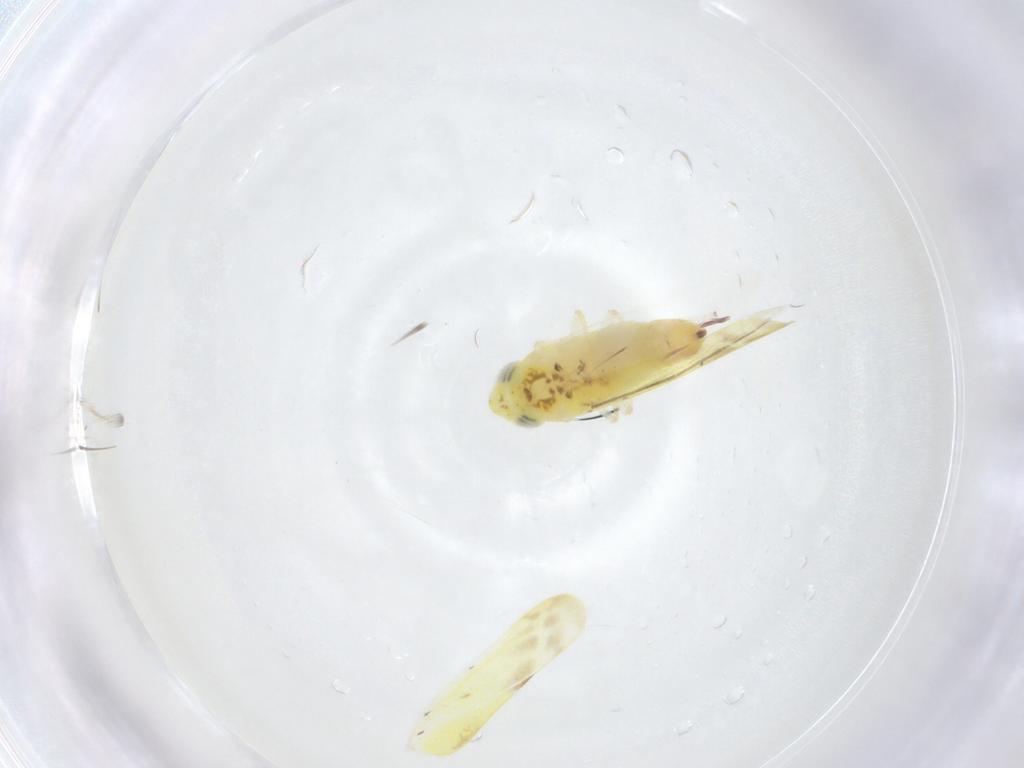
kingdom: Animalia
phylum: Arthropoda
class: Insecta
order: Hemiptera
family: Cicadellidae
